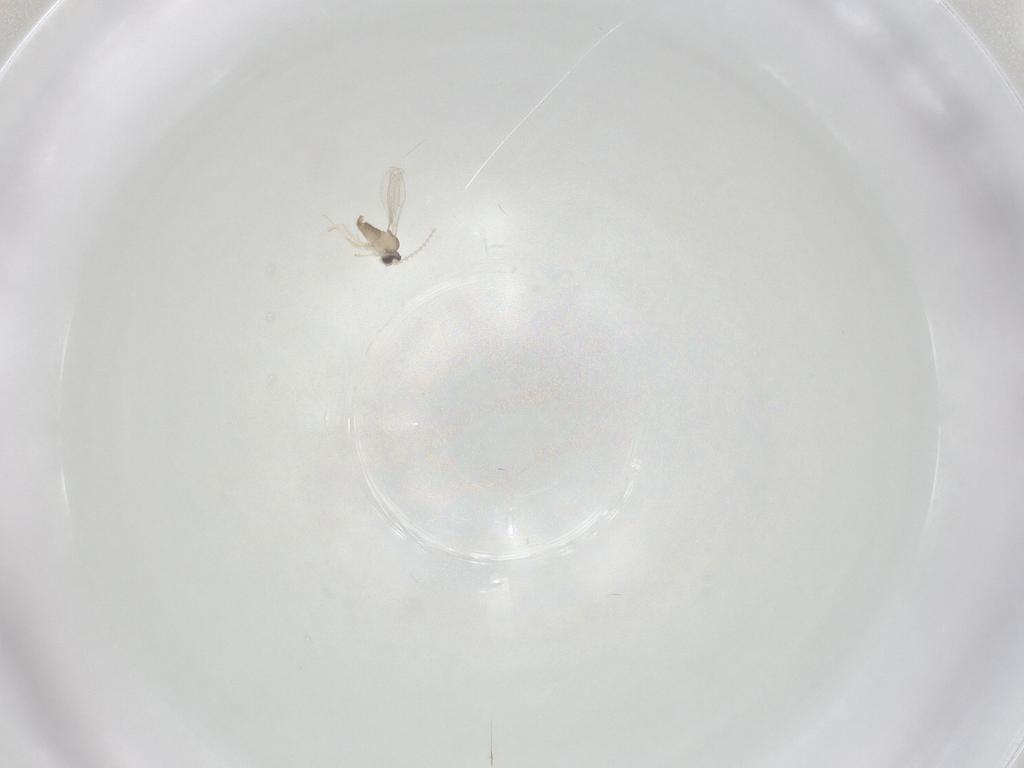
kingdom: Animalia
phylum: Arthropoda
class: Insecta
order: Diptera
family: Cecidomyiidae
